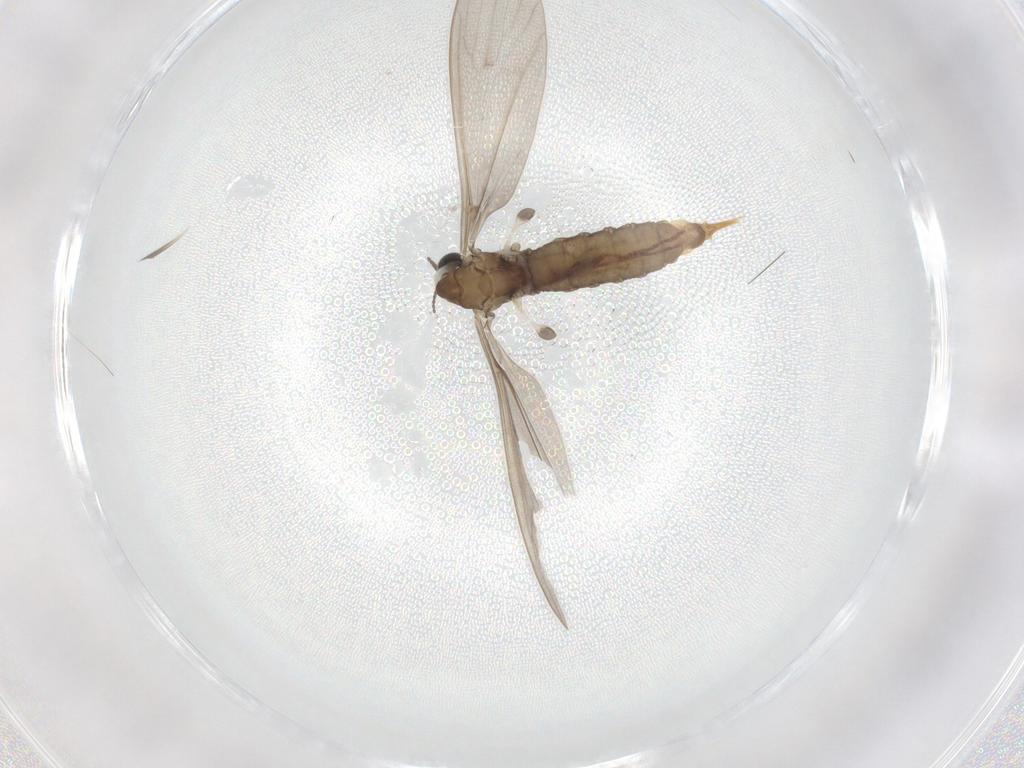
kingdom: Animalia
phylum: Arthropoda
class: Insecta
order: Diptera
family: Limoniidae
